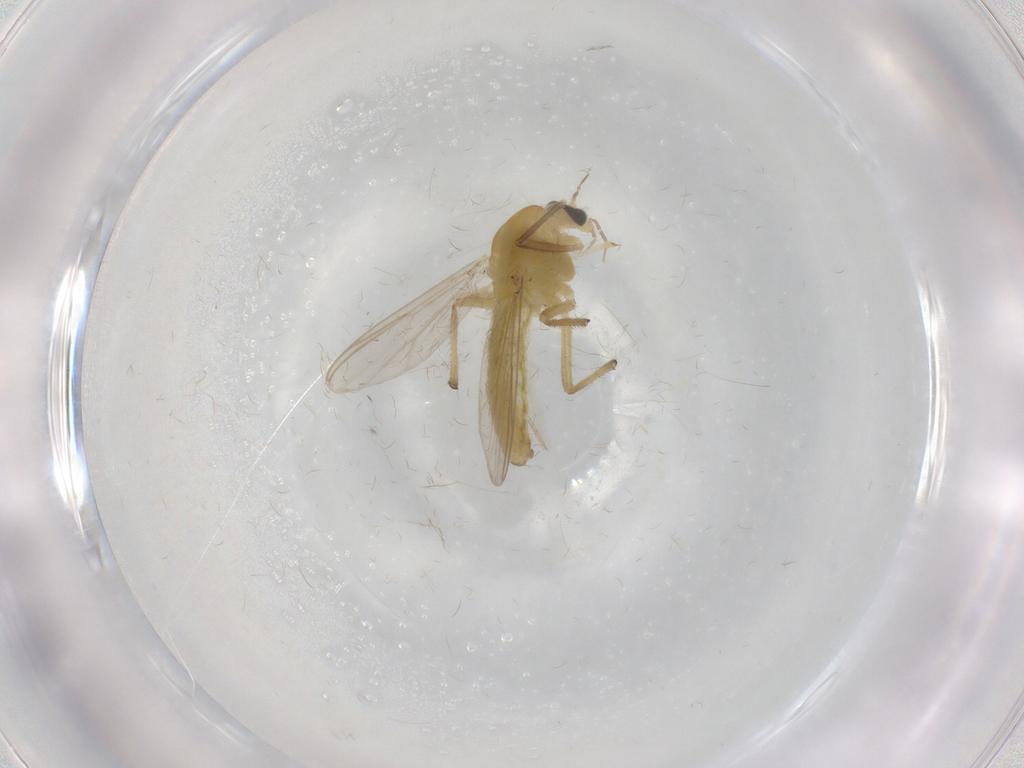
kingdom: Animalia
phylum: Arthropoda
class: Insecta
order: Diptera
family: Chironomidae
